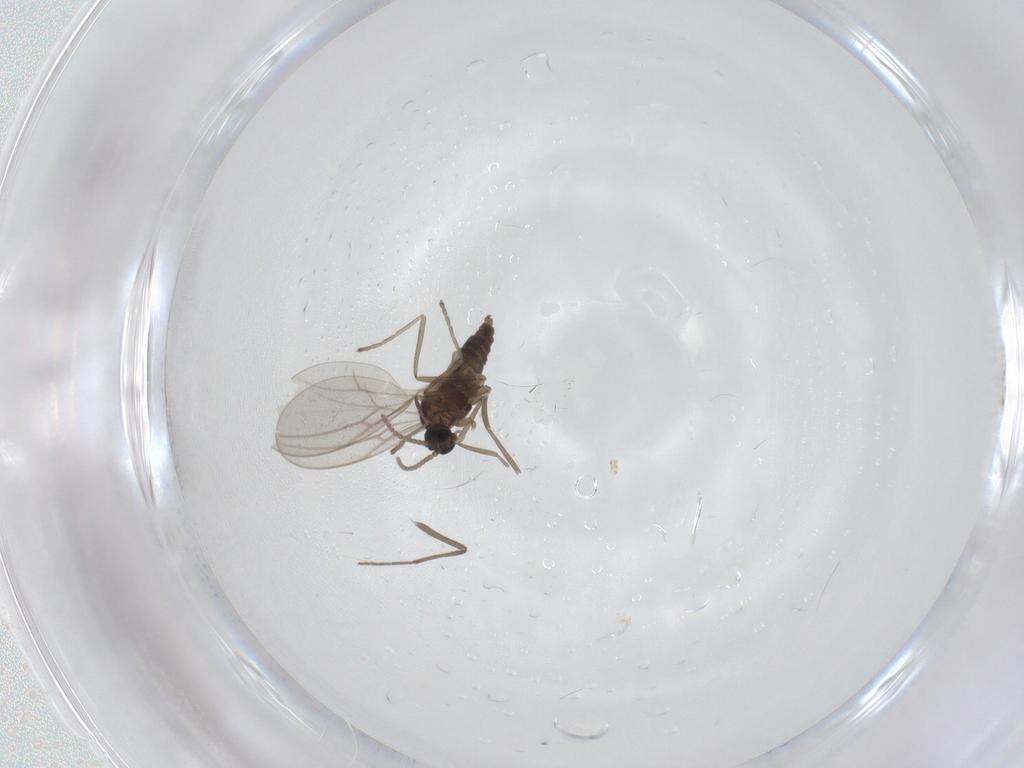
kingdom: Animalia
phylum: Arthropoda
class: Insecta
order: Diptera
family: Cecidomyiidae
